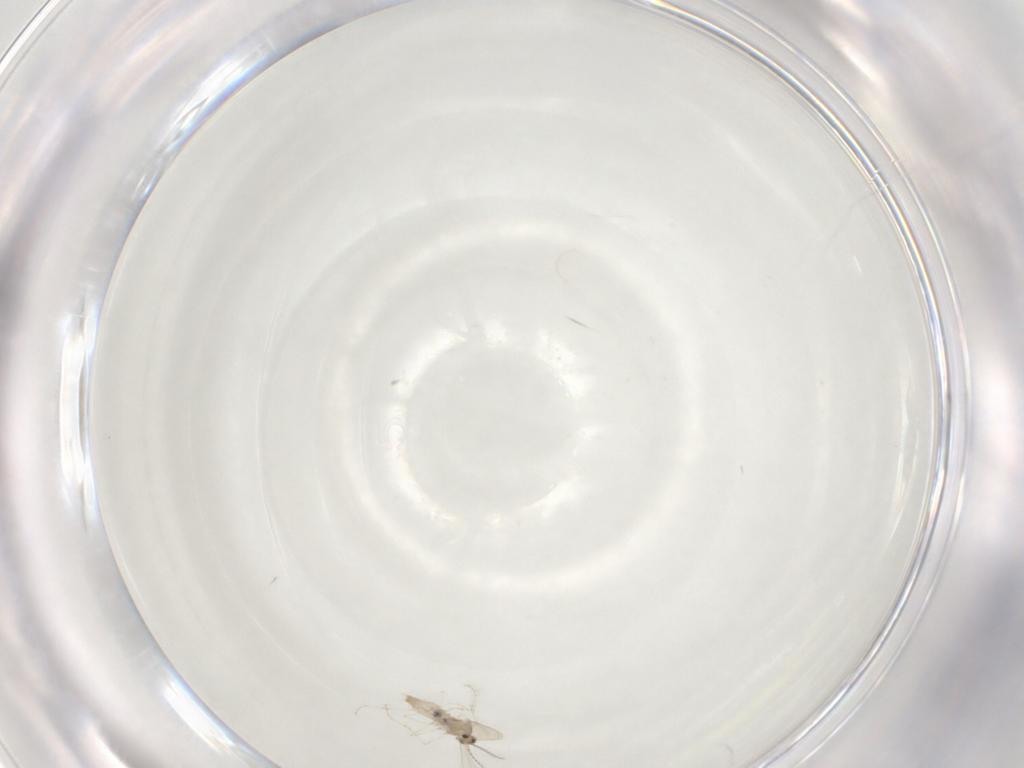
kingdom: Animalia
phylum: Arthropoda
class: Insecta
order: Diptera
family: Cecidomyiidae
